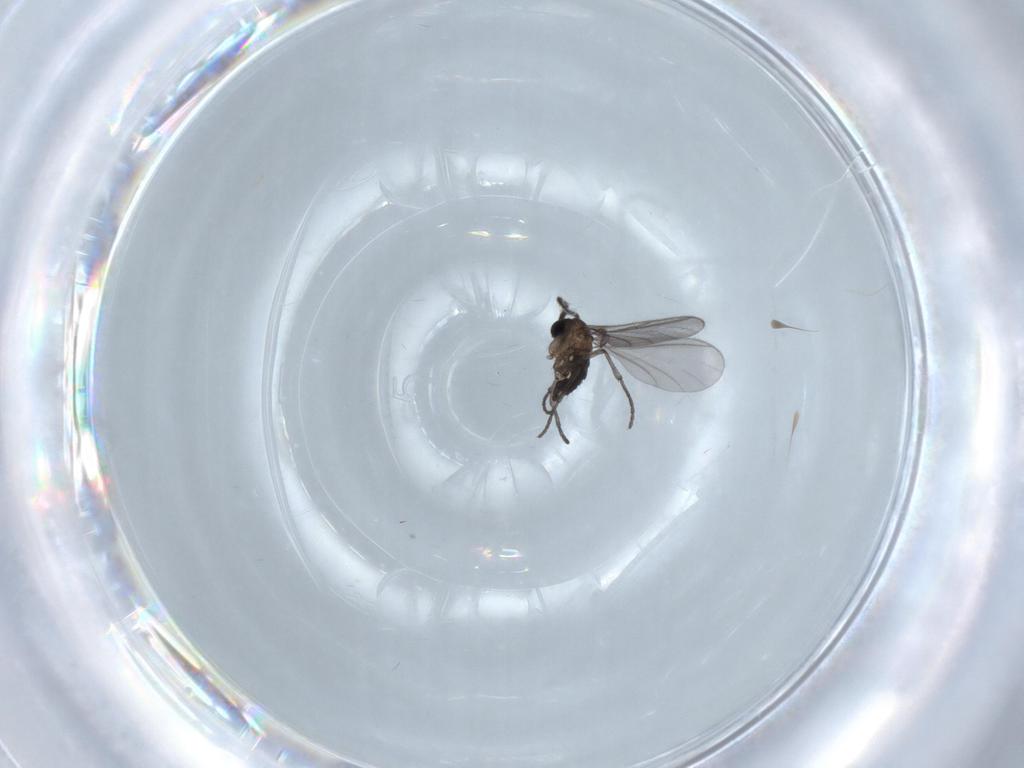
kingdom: Animalia
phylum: Arthropoda
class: Insecta
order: Diptera
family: Sciaridae
